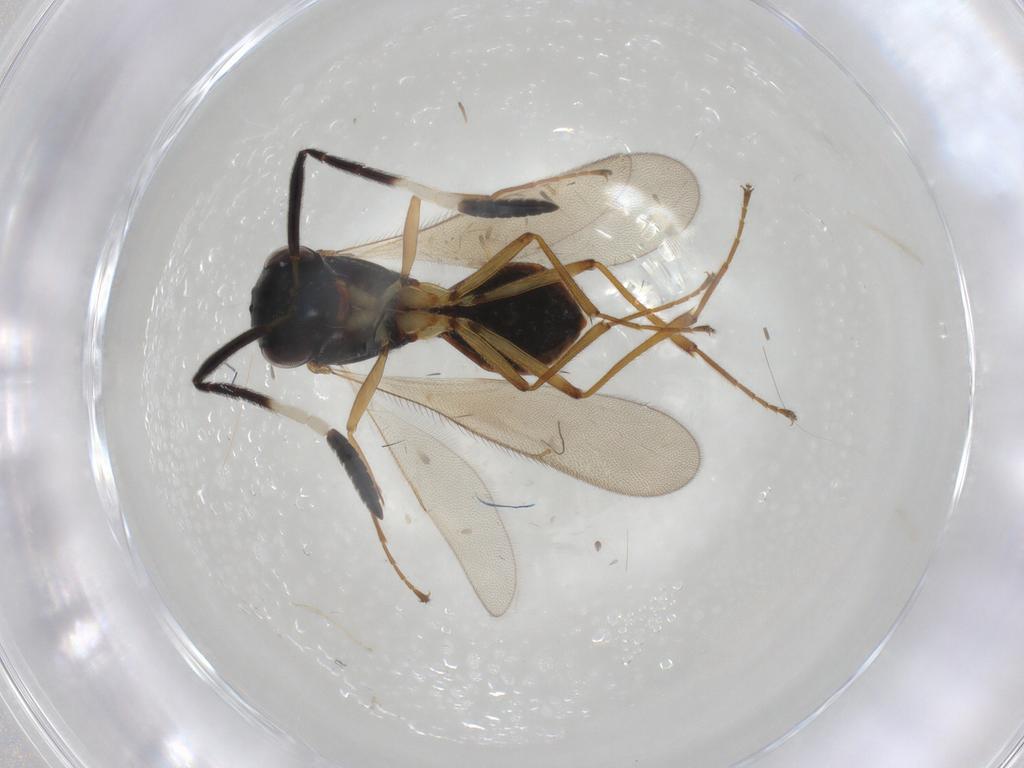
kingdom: Animalia
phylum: Arthropoda
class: Insecta
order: Hymenoptera
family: Scelionidae
